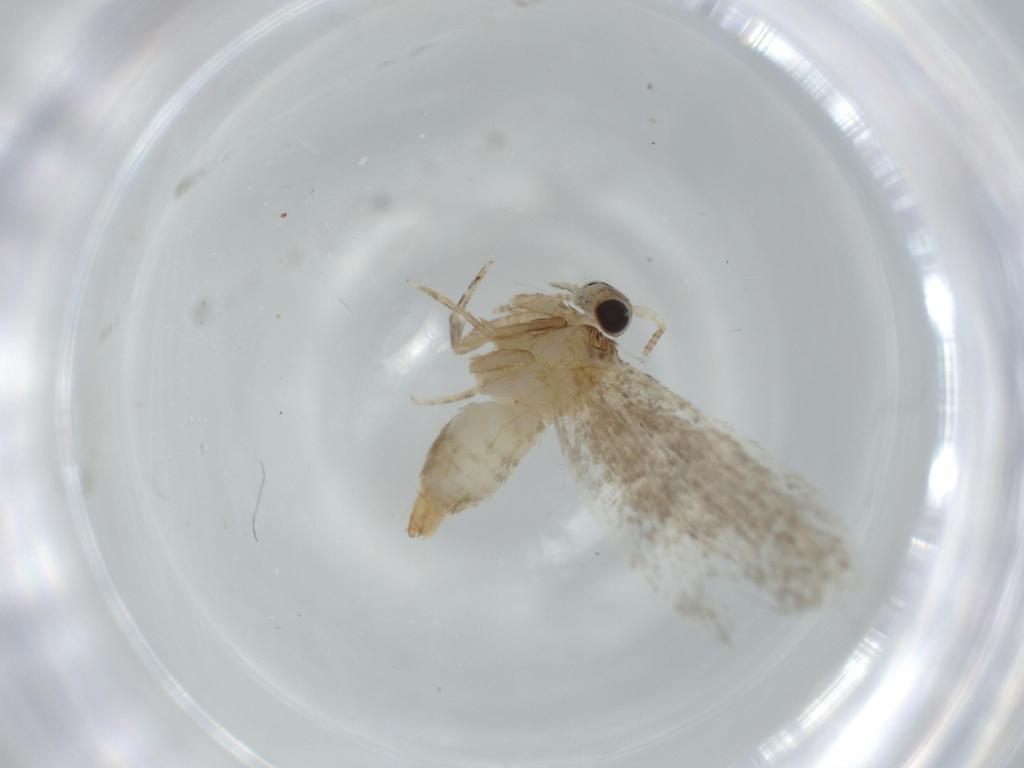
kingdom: Animalia
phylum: Arthropoda
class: Insecta
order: Lepidoptera
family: Tineidae
